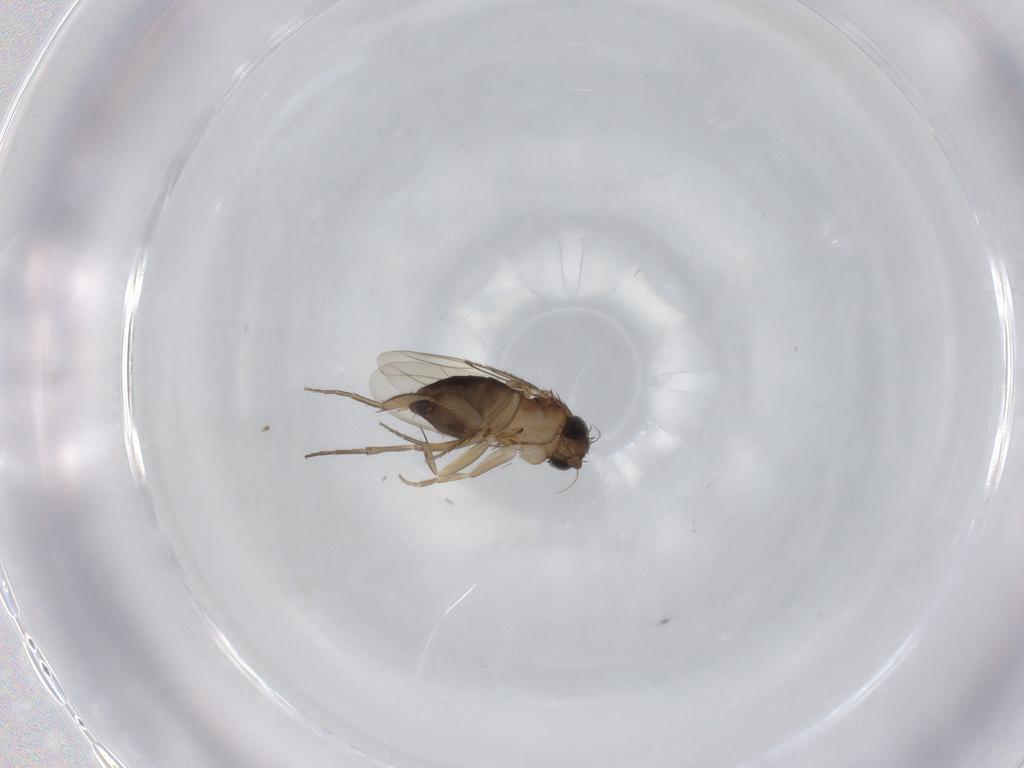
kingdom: Animalia
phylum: Arthropoda
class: Insecta
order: Diptera
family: Phoridae
